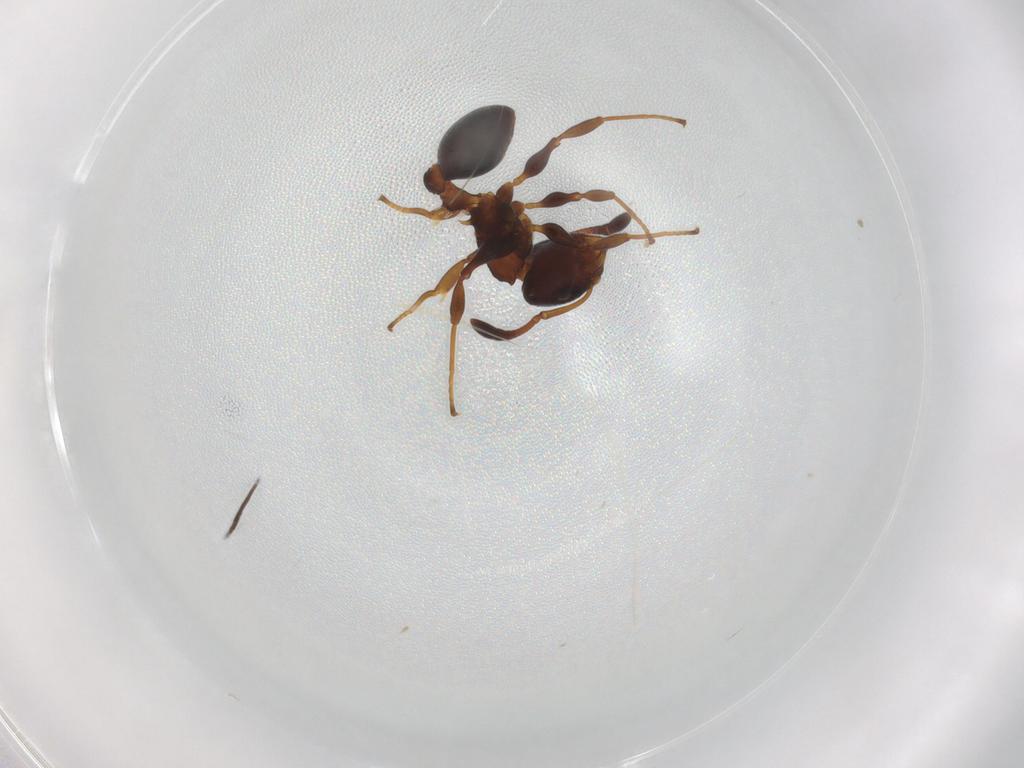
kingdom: Animalia
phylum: Arthropoda
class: Insecta
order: Hymenoptera
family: Formicidae
